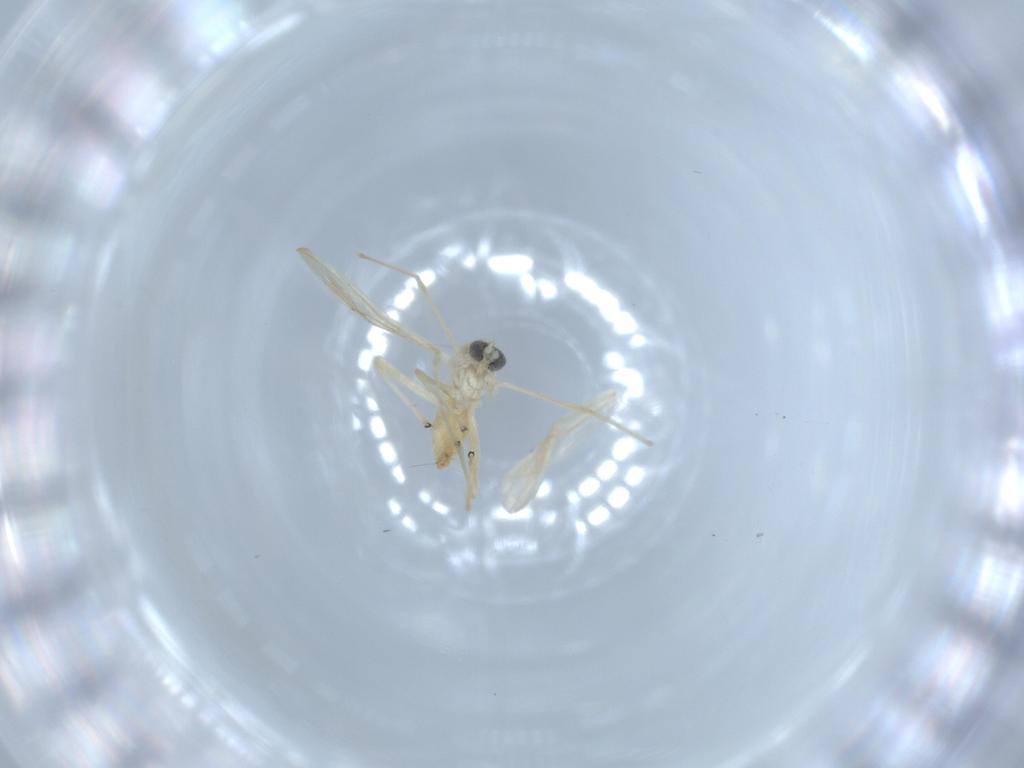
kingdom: Animalia
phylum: Arthropoda
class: Insecta
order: Diptera
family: Chironomidae
